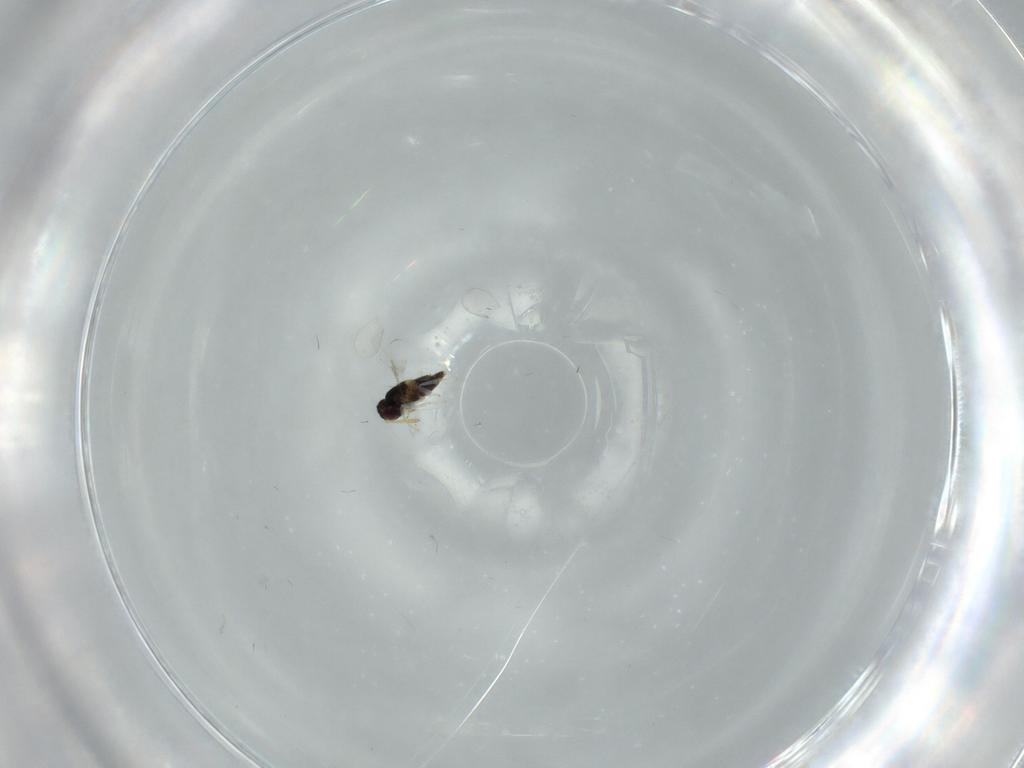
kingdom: Animalia
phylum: Arthropoda
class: Insecta
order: Hymenoptera
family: Aphelinidae
